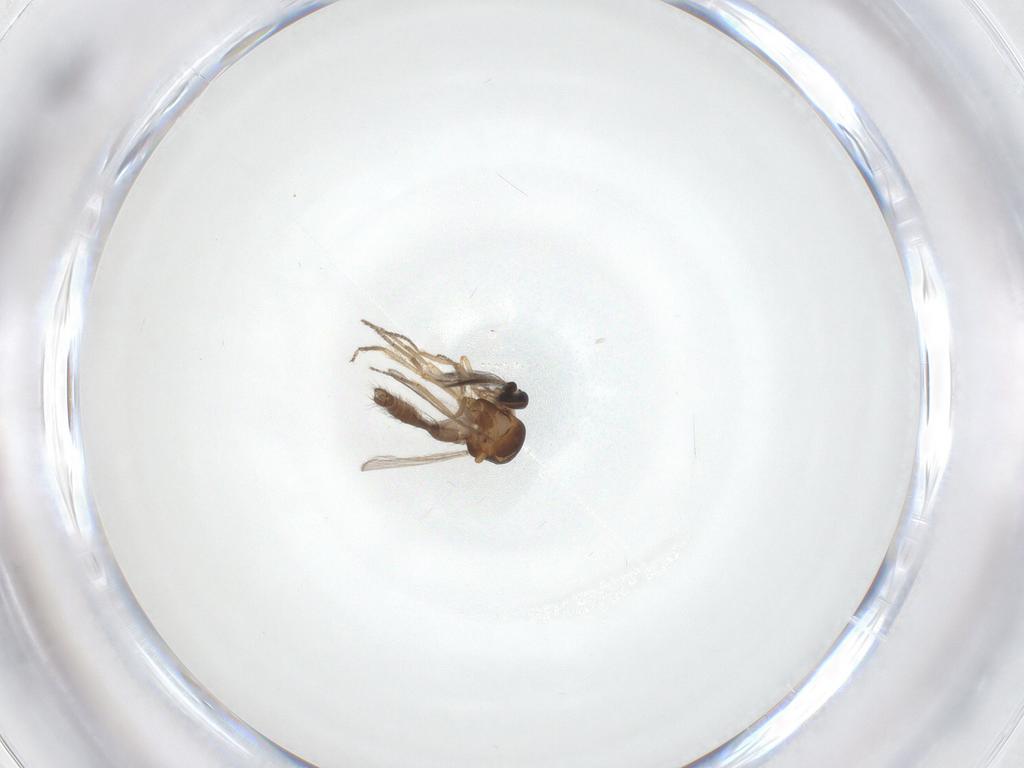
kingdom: Animalia
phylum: Arthropoda
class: Insecta
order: Diptera
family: Ceratopogonidae
